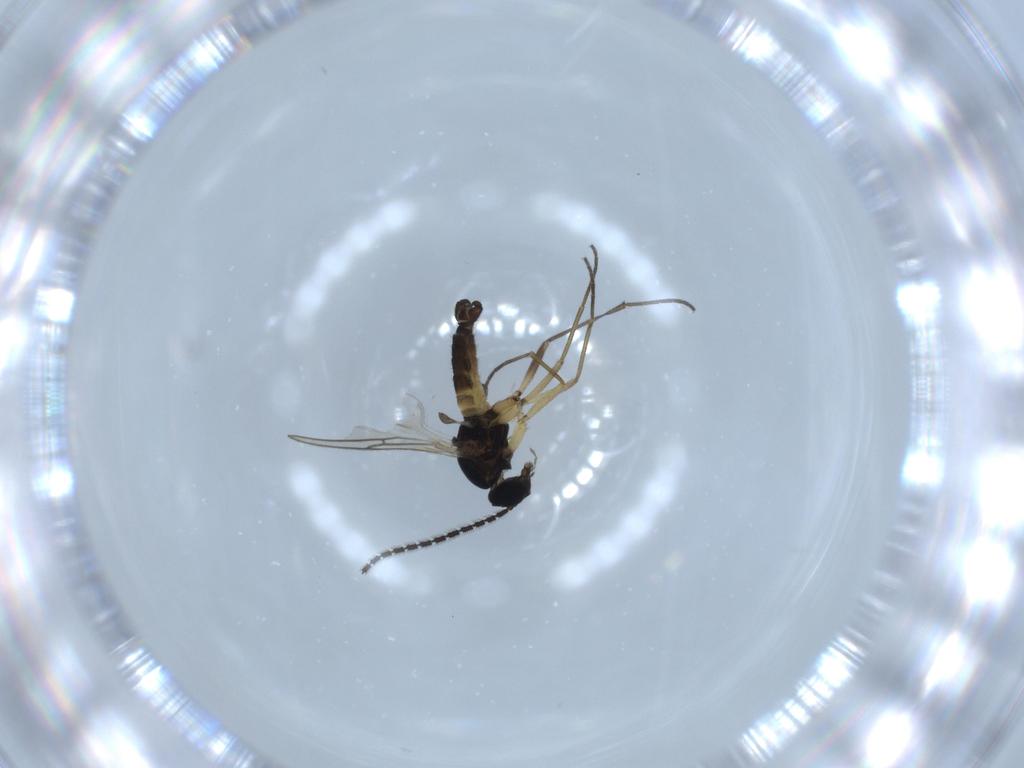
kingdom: Animalia
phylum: Arthropoda
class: Insecta
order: Diptera
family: Sciaridae
